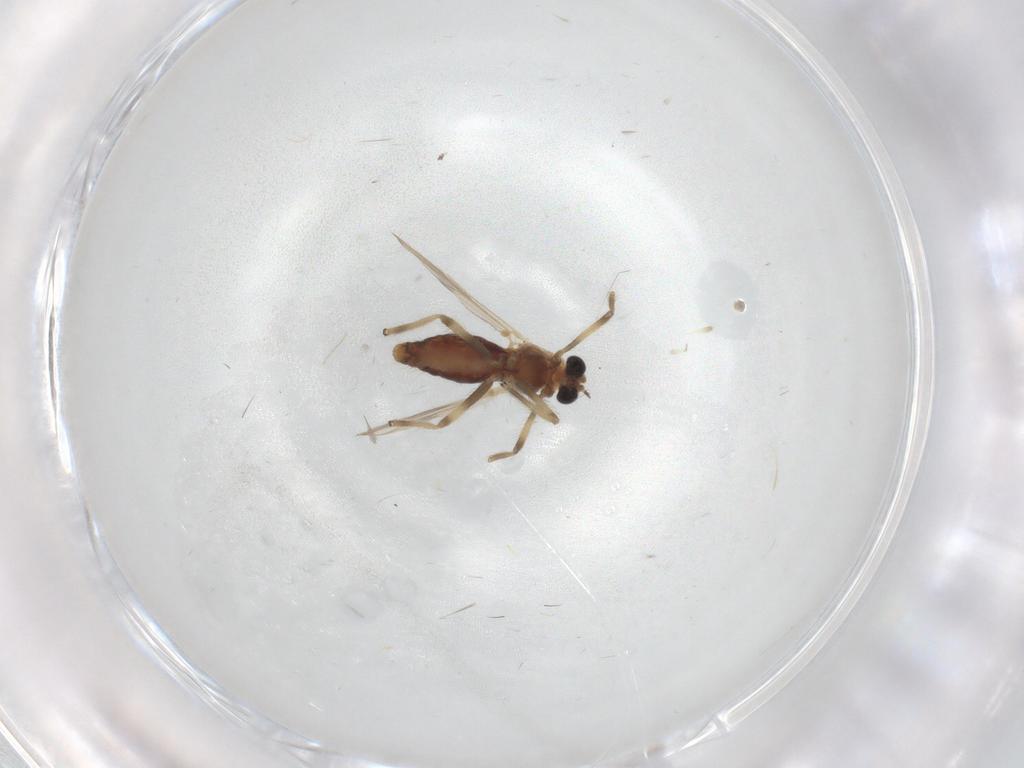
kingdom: Animalia
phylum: Arthropoda
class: Insecta
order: Diptera
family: Chironomidae
